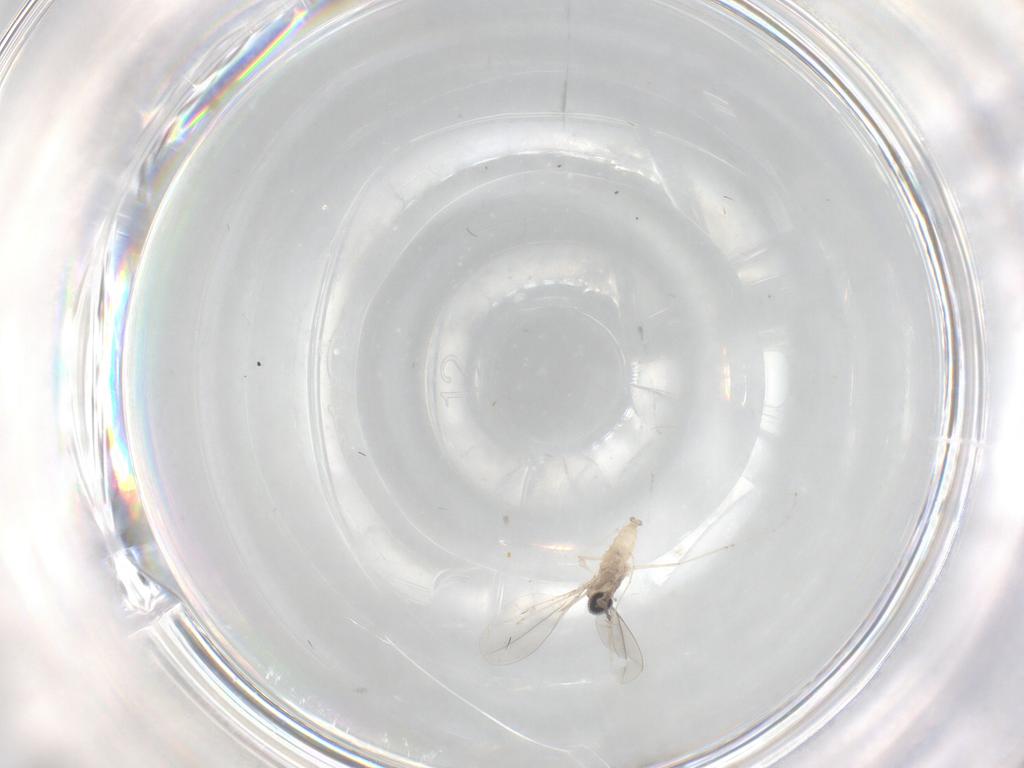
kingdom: Animalia
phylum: Arthropoda
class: Insecta
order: Diptera
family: Cecidomyiidae
